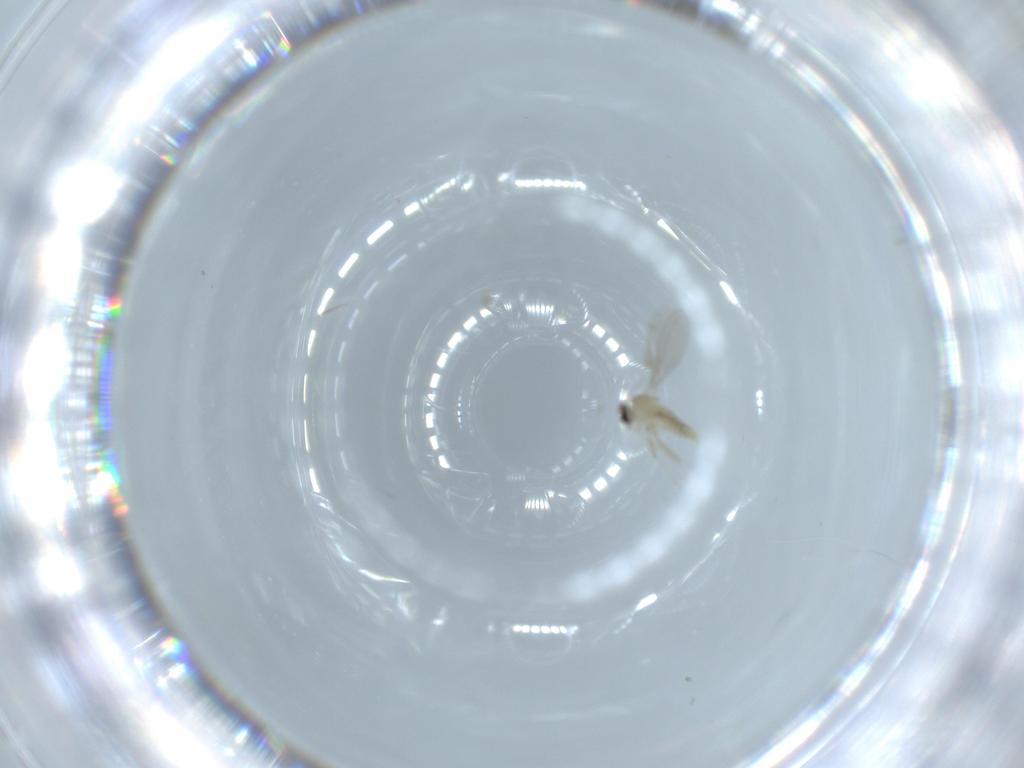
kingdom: Animalia
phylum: Arthropoda
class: Insecta
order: Diptera
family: Cecidomyiidae
